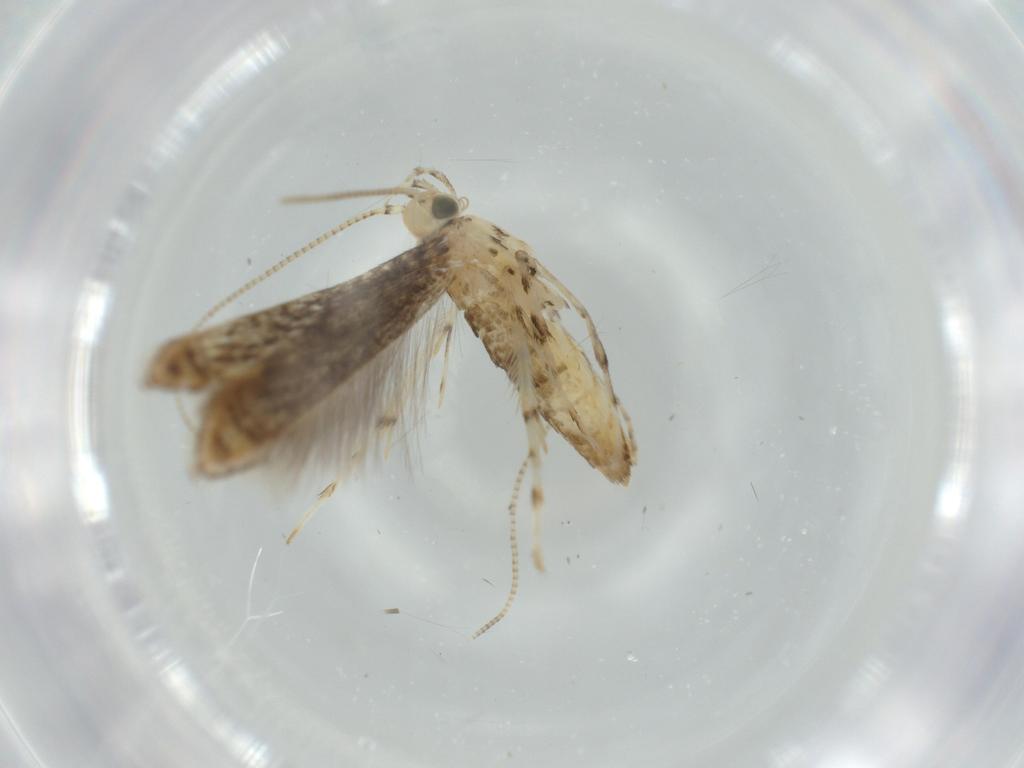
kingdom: Animalia
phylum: Arthropoda
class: Insecta
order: Lepidoptera
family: Gracillariidae
